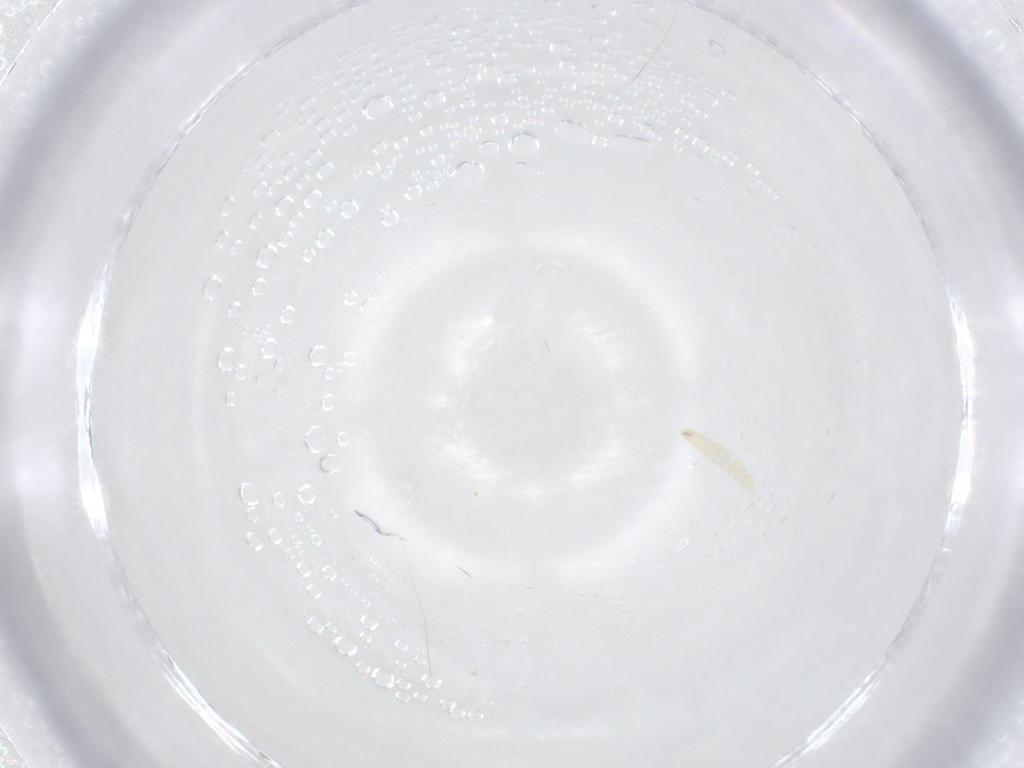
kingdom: Animalia
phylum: Arthropoda
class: Insecta
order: Diptera
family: Tachinidae
